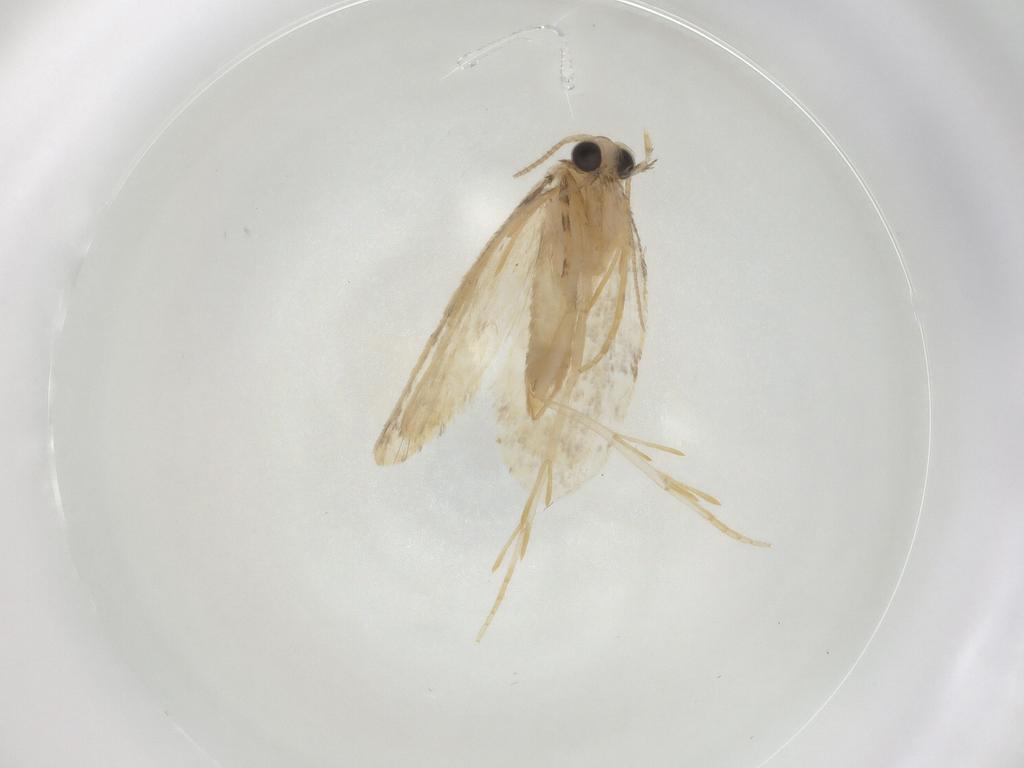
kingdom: Animalia
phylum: Arthropoda
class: Insecta
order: Lepidoptera
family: Psychidae
